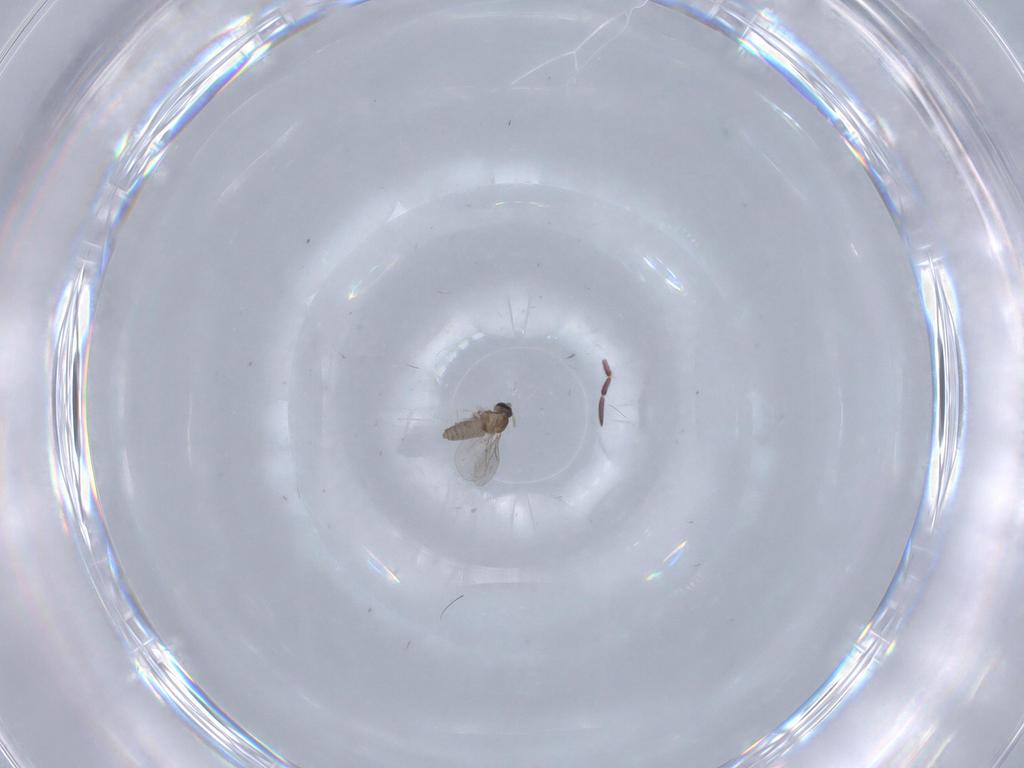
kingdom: Animalia
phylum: Arthropoda
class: Insecta
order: Diptera
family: Cecidomyiidae
